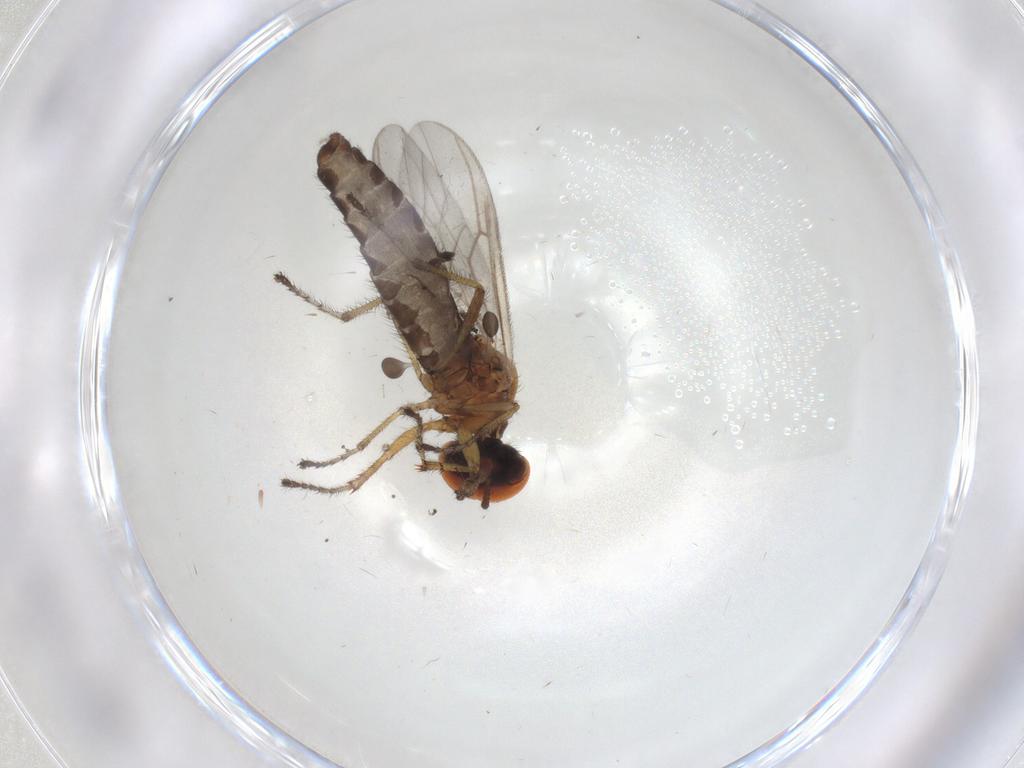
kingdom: Animalia
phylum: Arthropoda
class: Insecta
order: Diptera
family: Bibionidae
